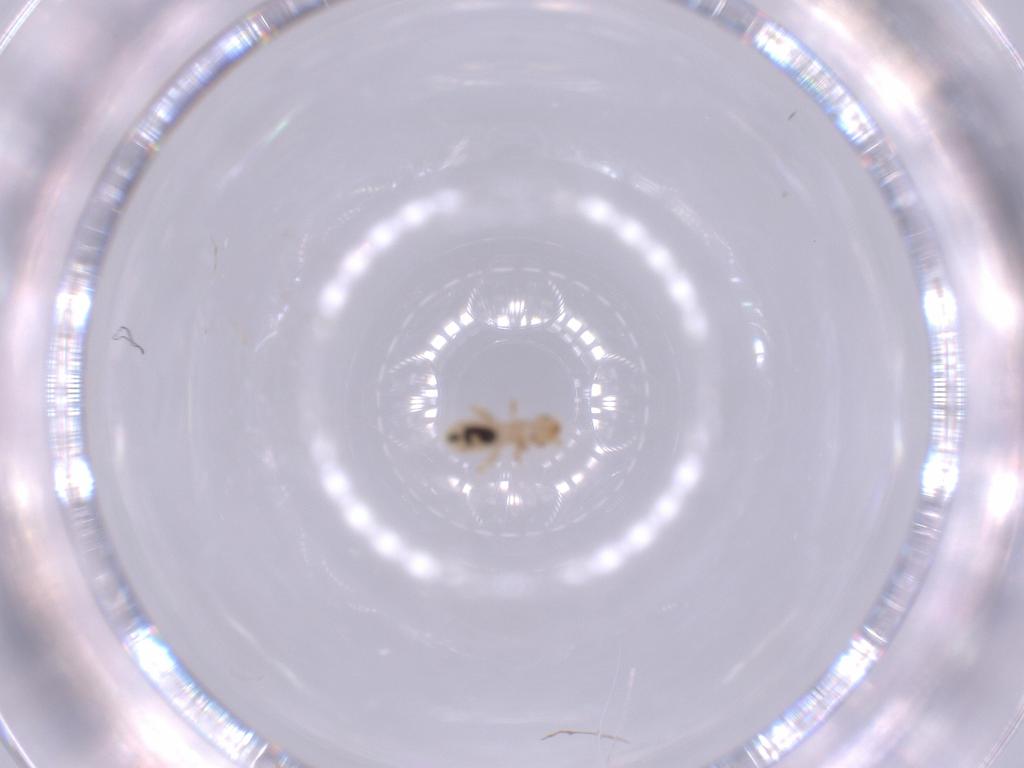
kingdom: Animalia
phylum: Arthropoda
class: Insecta
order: Psocodea
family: Liposcelididae
